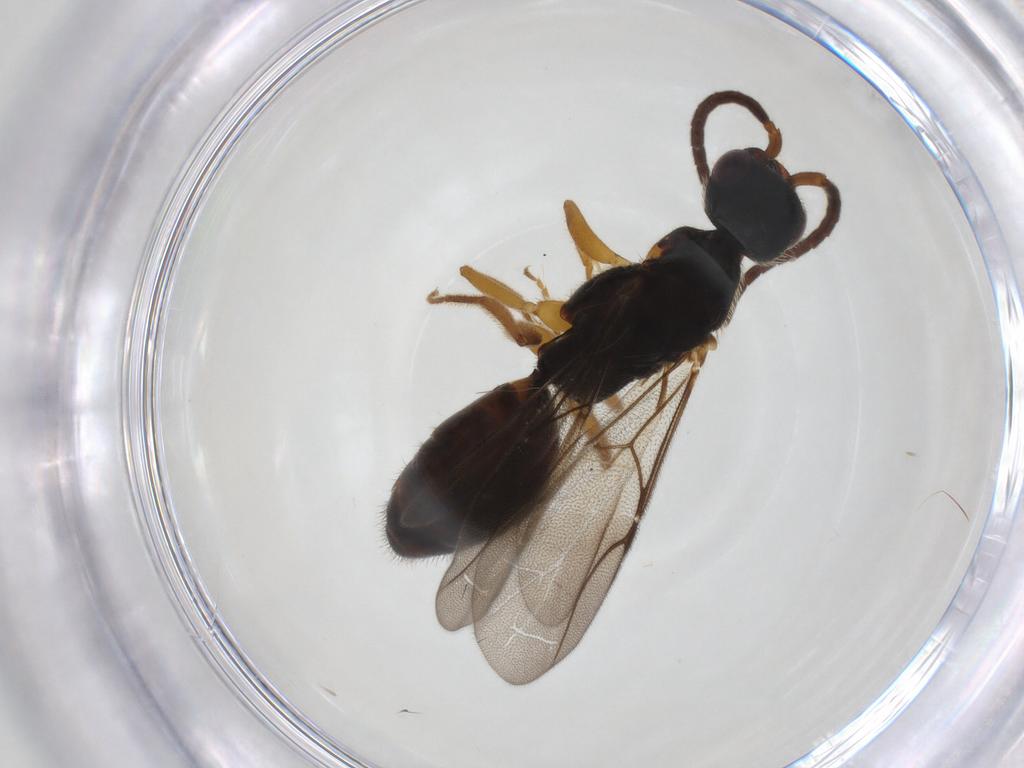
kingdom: Animalia
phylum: Arthropoda
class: Insecta
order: Hymenoptera
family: Bethylidae
